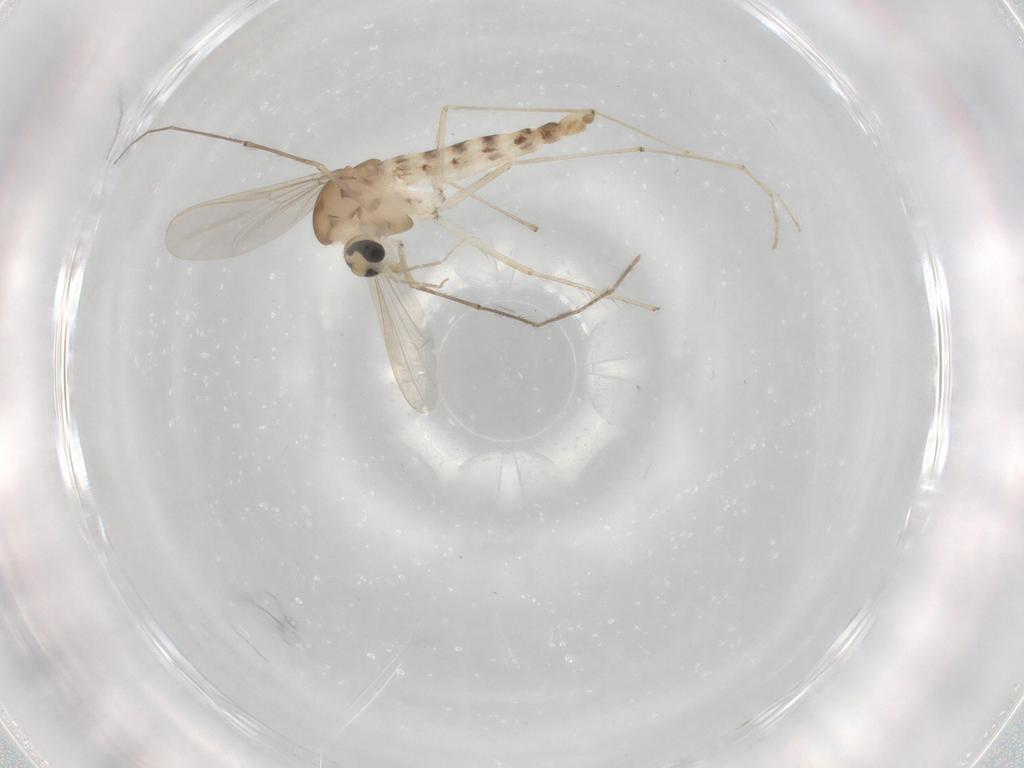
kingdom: Animalia
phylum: Arthropoda
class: Insecta
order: Diptera
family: Chironomidae
